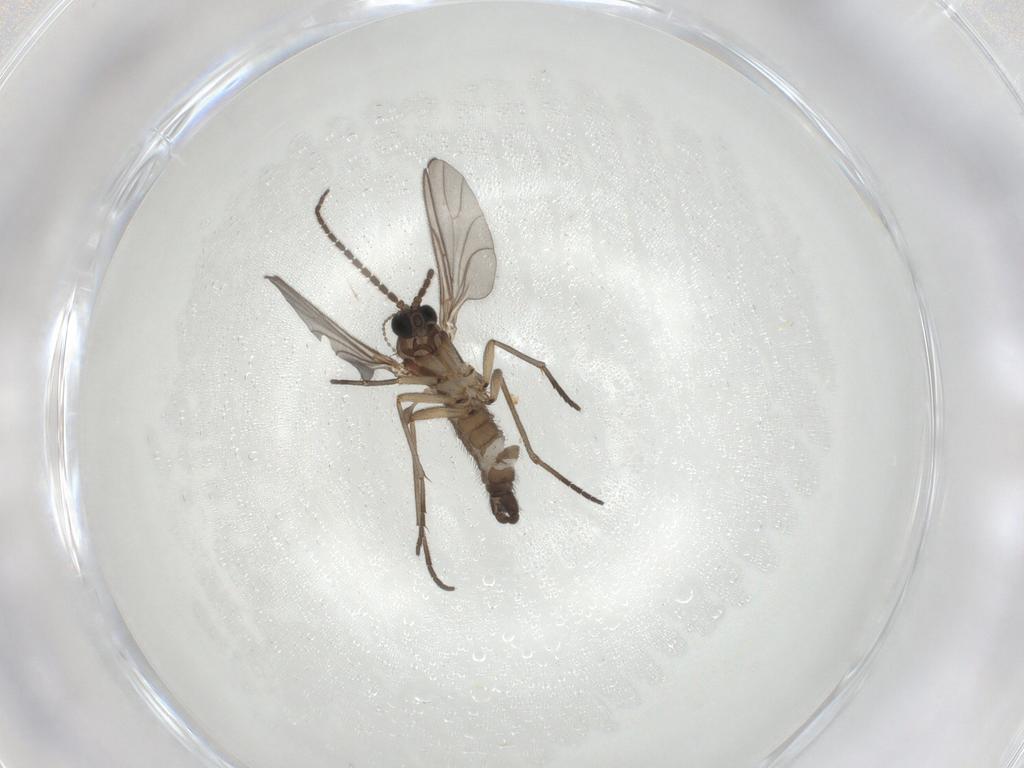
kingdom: Animalia
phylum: Arthropoda
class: Insecta
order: Diptera
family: Sciaridae
